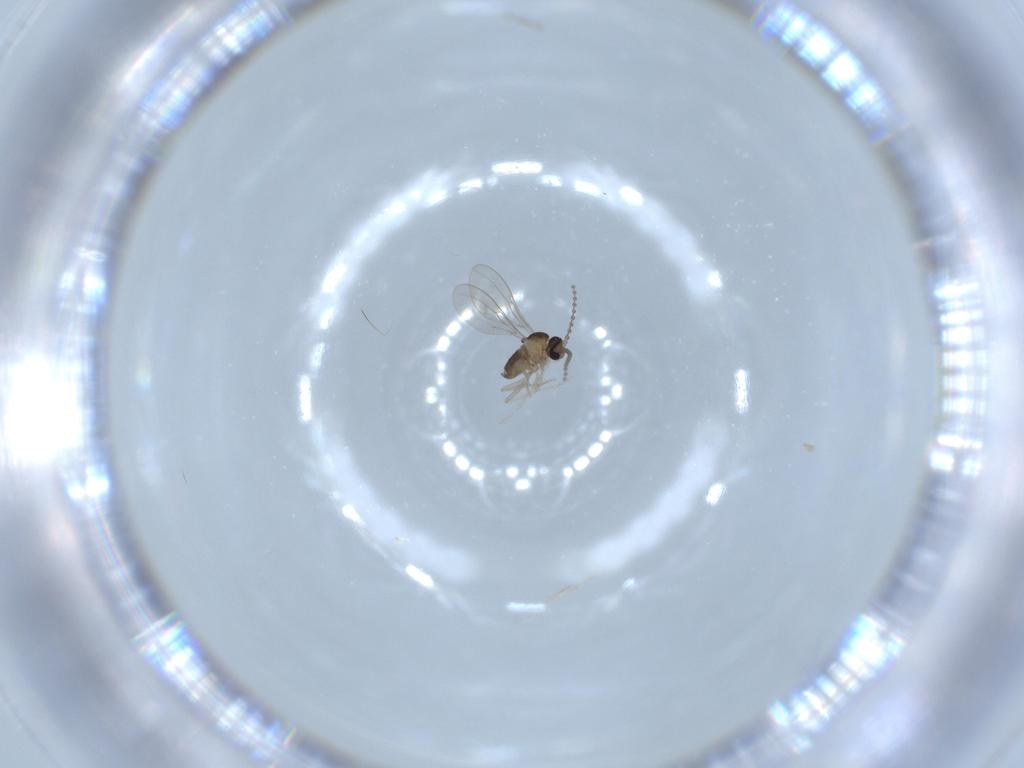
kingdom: Animalia
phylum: Arthropoda
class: Insecta
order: Diptera
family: Cecidomyiidae
